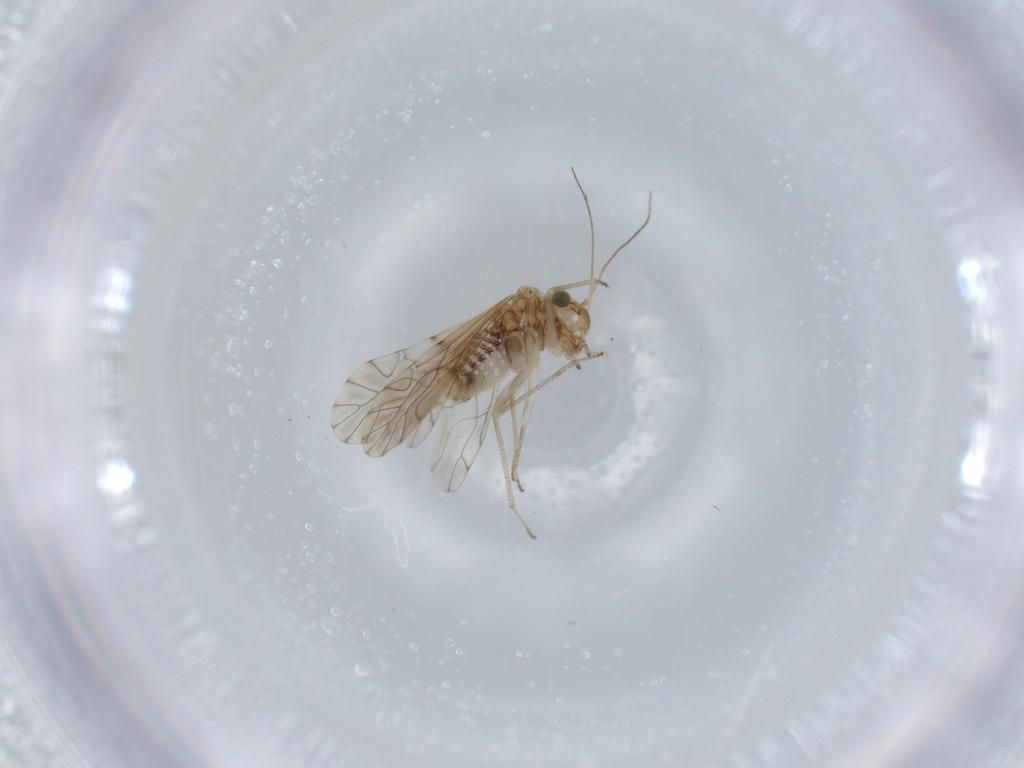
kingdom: Animalia
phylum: Arthropoda
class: Insecta
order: Psocodea
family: Lachesillidae
